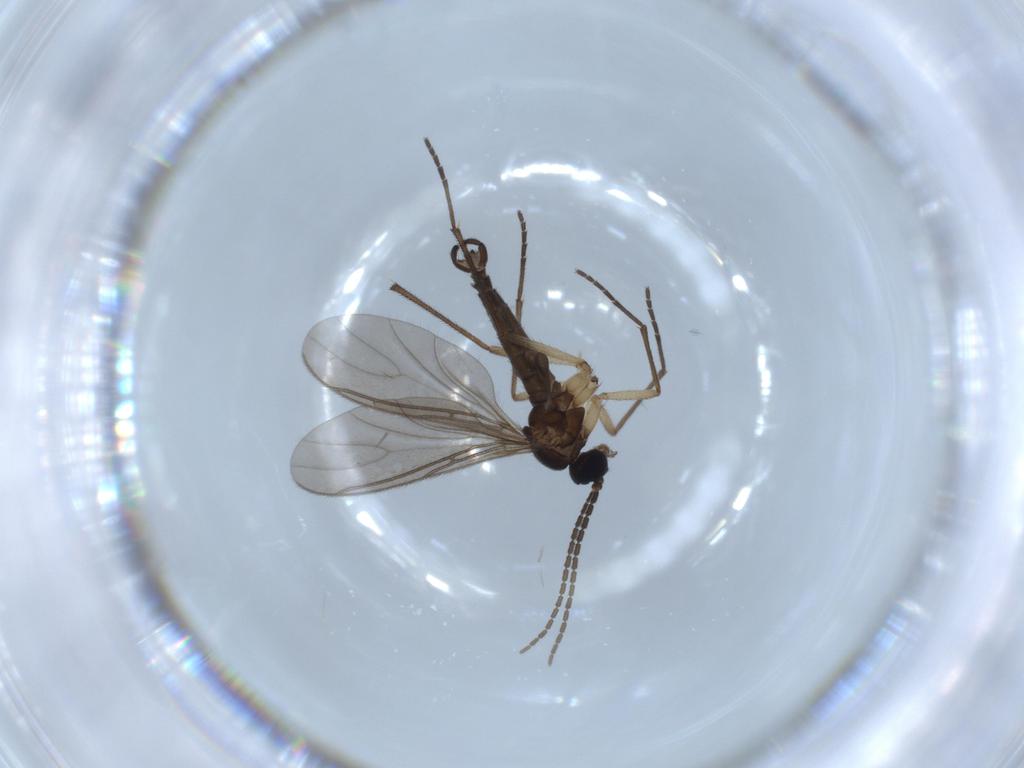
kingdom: Animalia
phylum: Arthropoda
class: Insecta
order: Diptera
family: Sciaridae
